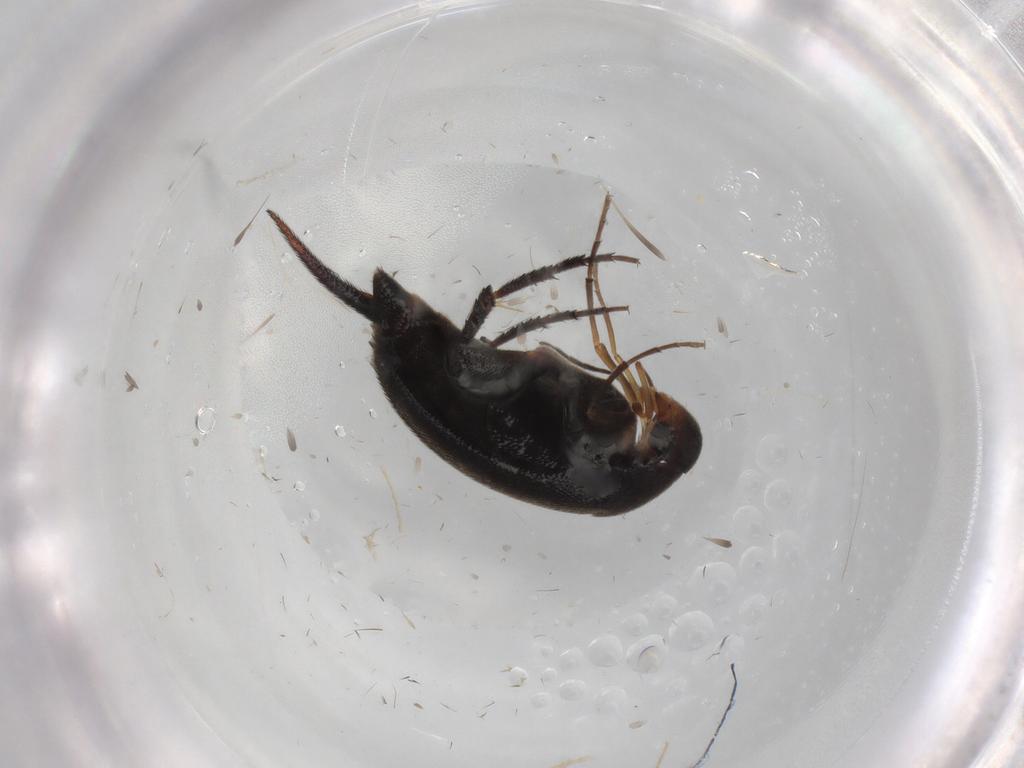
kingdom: Animalia
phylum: Arthropoda
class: Insecta
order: Coleoptera
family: Mordellidae
